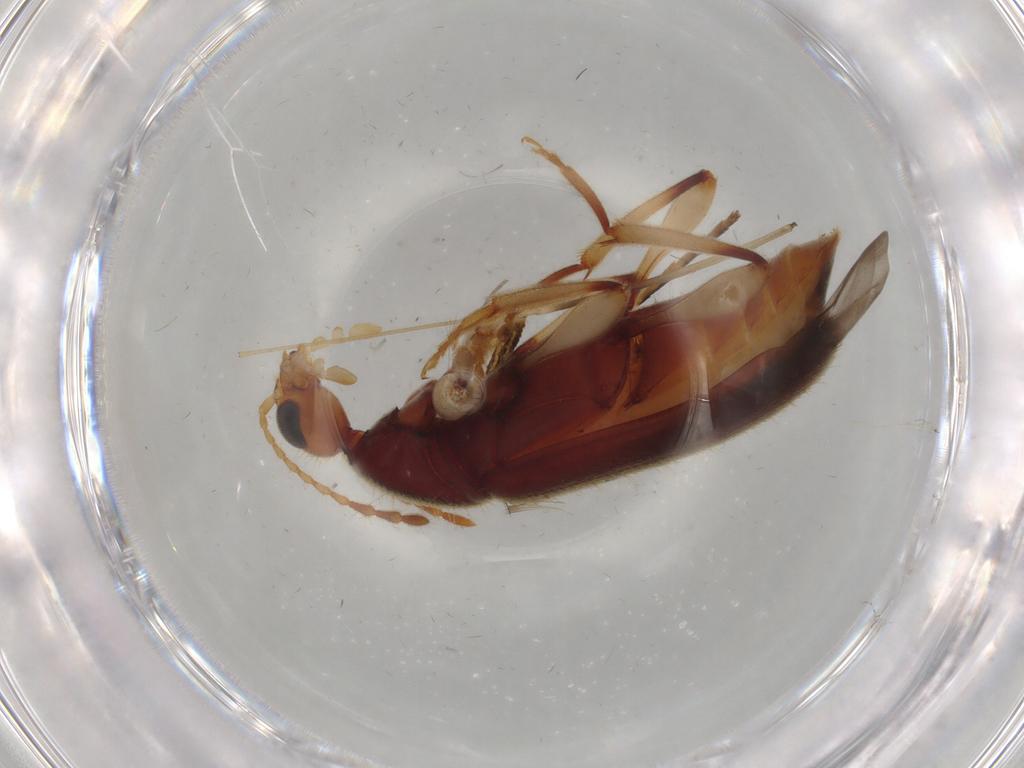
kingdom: Animalia
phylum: Arthropoda
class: Insecta
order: Coleoptera
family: Anthicidae
